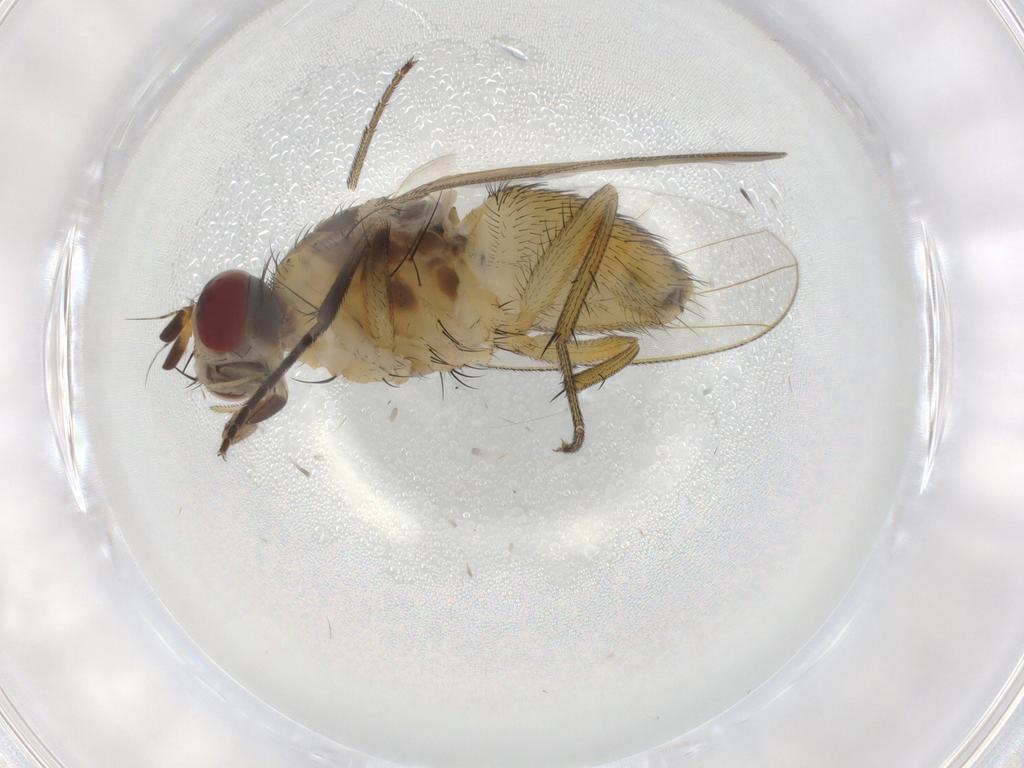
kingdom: Animalia
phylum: Arthropoda
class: Insecta
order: Diptera
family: Muscidae
